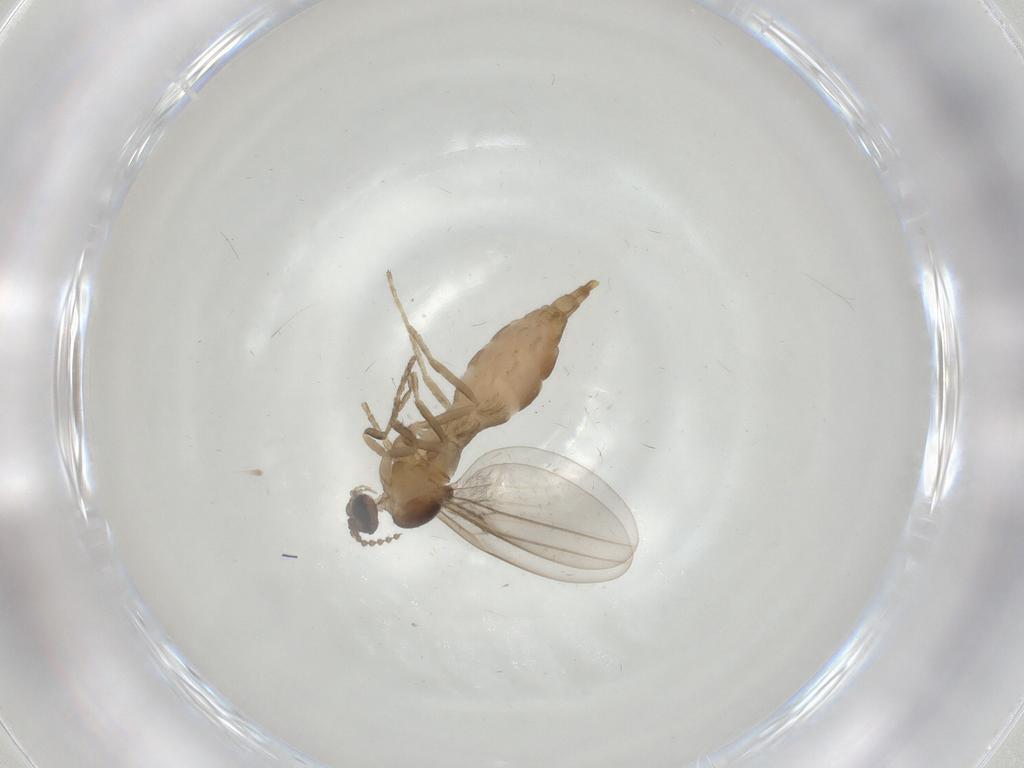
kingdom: Animalia
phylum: Arthropoda
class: Insecta
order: Diptera
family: Cecidomyiidae
